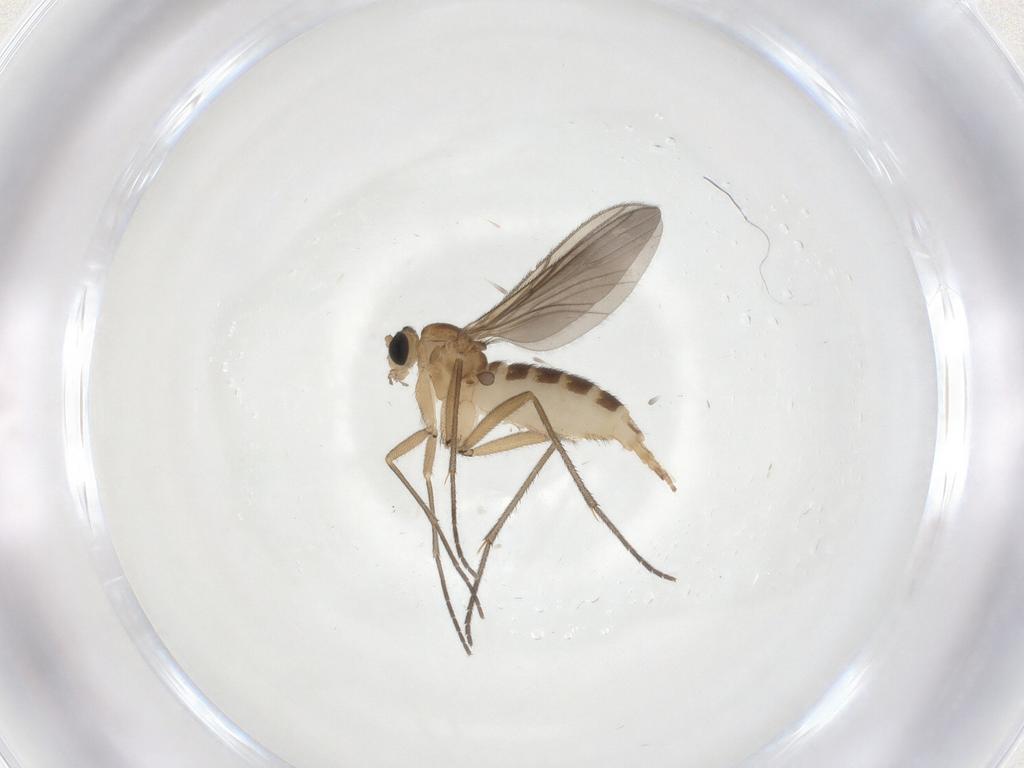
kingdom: Animalia
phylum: Arthropoda
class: Insecta
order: Diptera
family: Sciaridae
